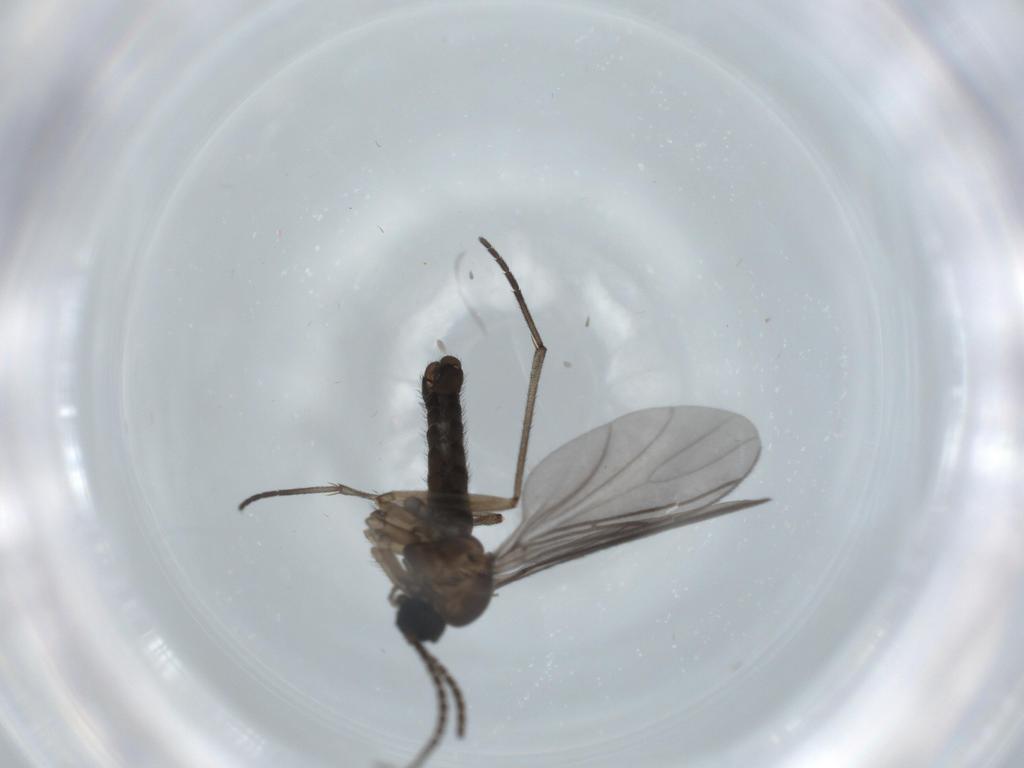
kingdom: Animalia
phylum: Arthropoda
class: Insecta
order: Diptera
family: Sciaridae
